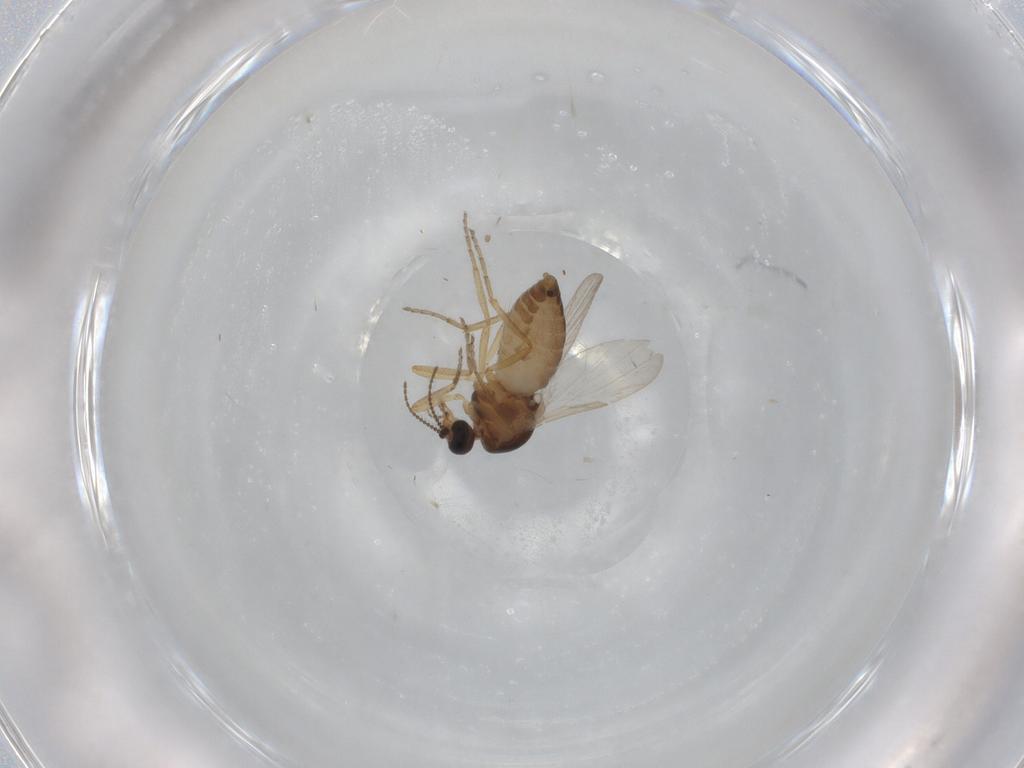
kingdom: Animalia
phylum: Arthropoda
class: Insecta
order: Diptera
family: Ceratopogonidae
